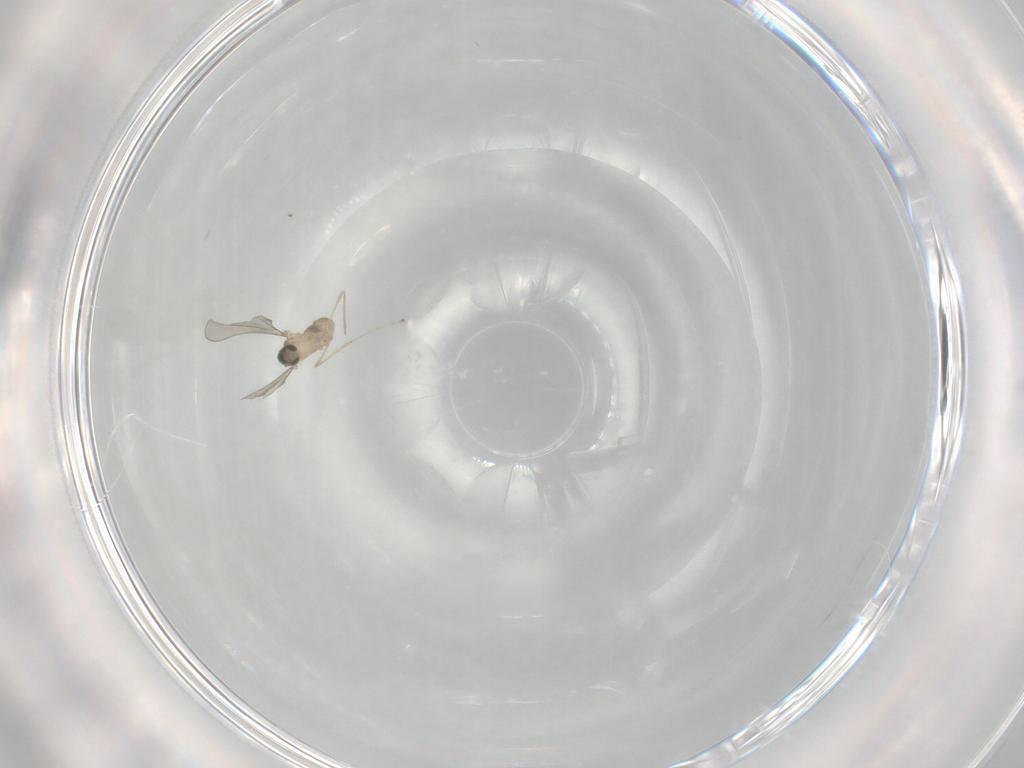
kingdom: Animalia
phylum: Arthropoda
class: Insecta
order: Diptera
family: Cecidomyiidae
